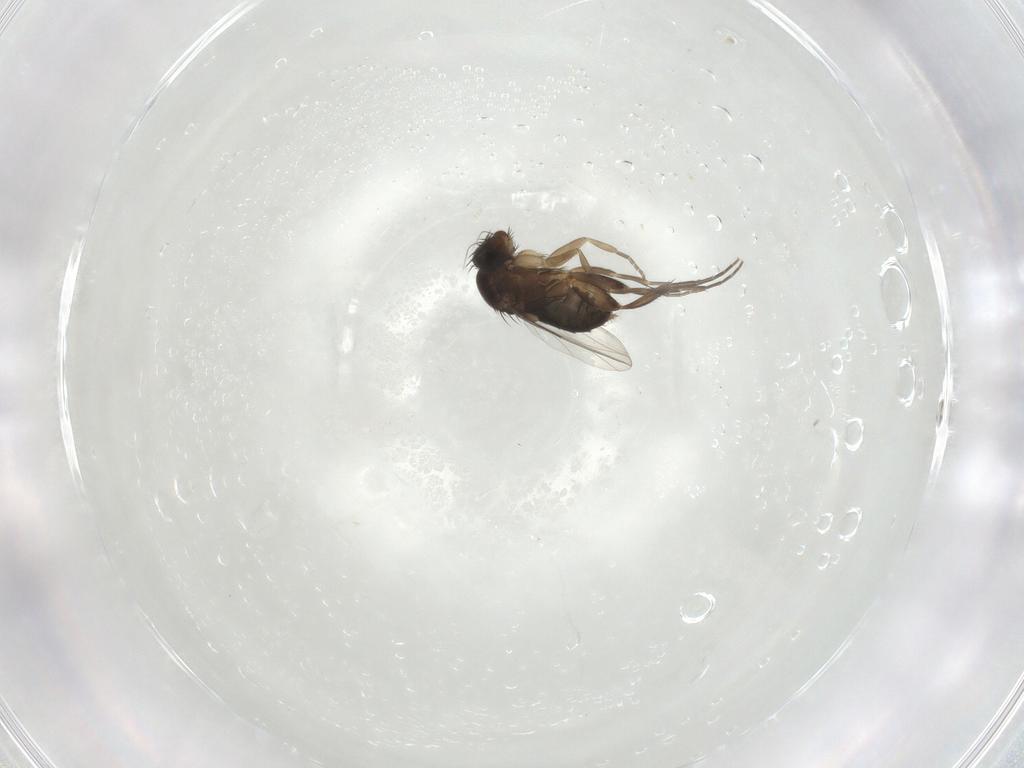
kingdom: Animalia
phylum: Arthropoda
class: Insecta
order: Diptera
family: Phoridae
